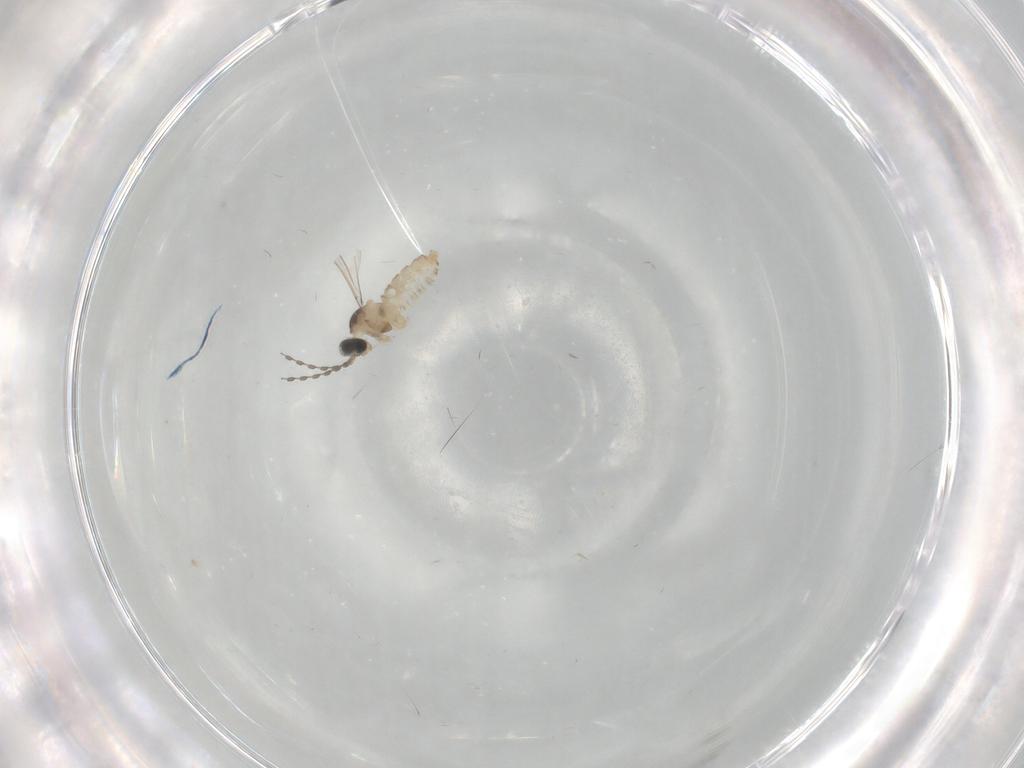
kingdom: Animalia
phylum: Arthropoda
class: Insecta
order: Diptera
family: Cecidomyiidae
